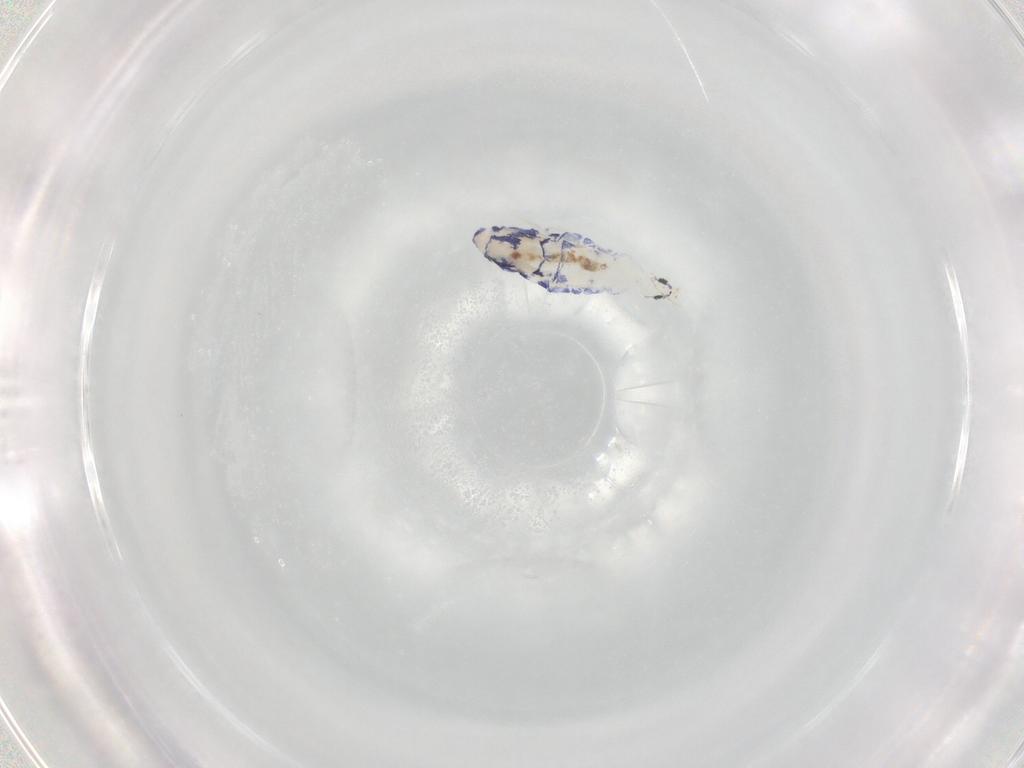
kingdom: Animalia
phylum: Arthropoda
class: Collembola
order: Entomobryomorpha
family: Entomobryidae
